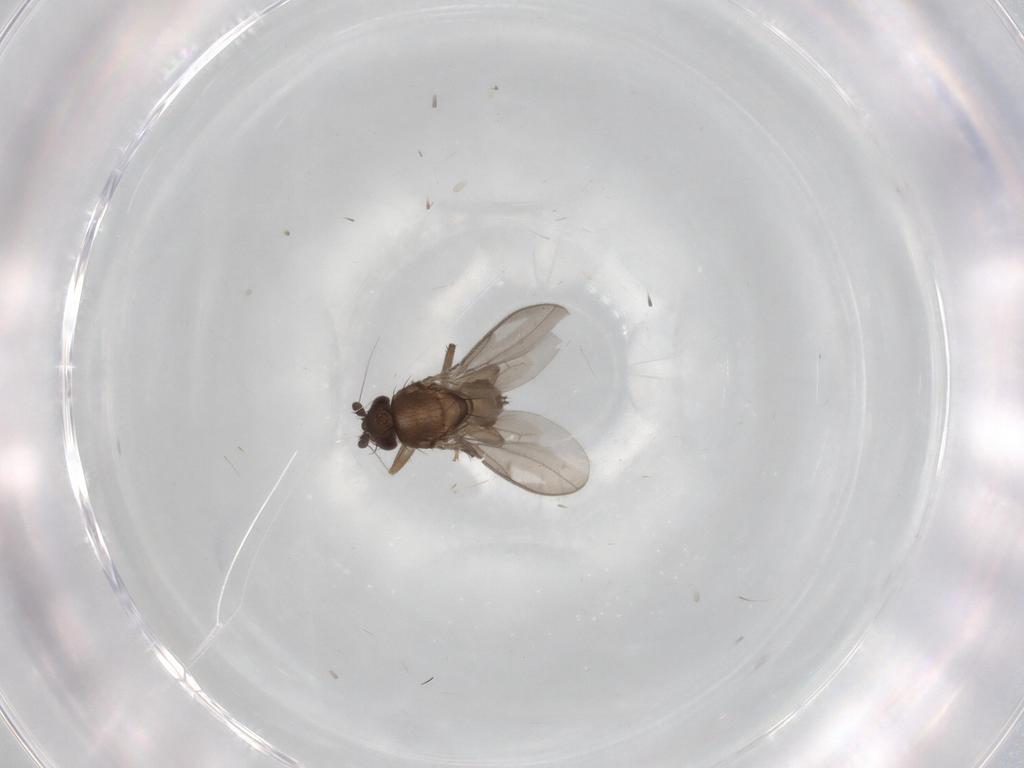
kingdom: Animalia
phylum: Arthropoda
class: Insecta
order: Diptera
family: Sphaeroceridae
